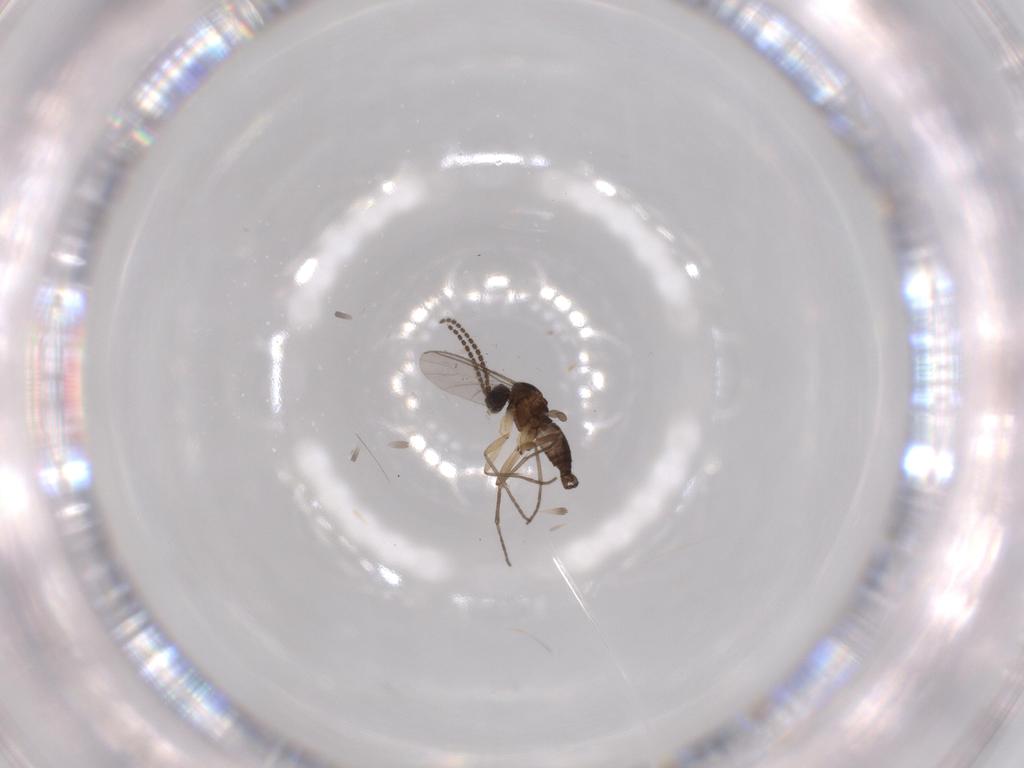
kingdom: Animalia
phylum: Arthropoda
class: Insecta
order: Diptera
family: Sciaridae
